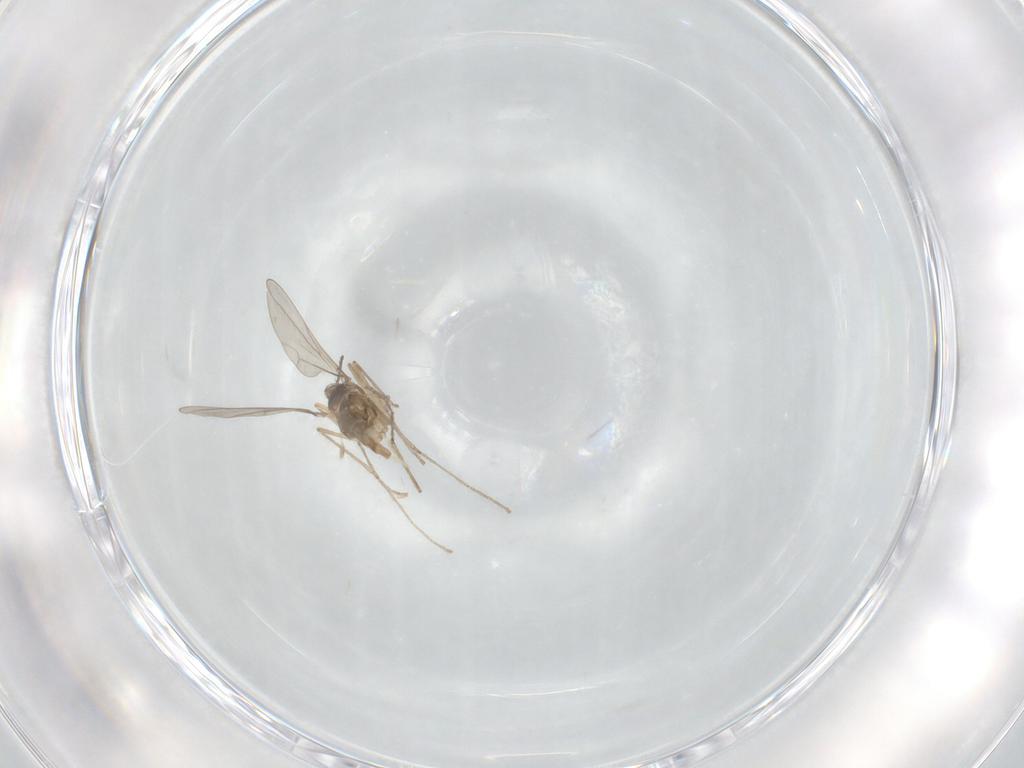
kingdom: Animalia
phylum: Arthropoda
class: Insecta
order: Diptera
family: Cecidomyiidae
